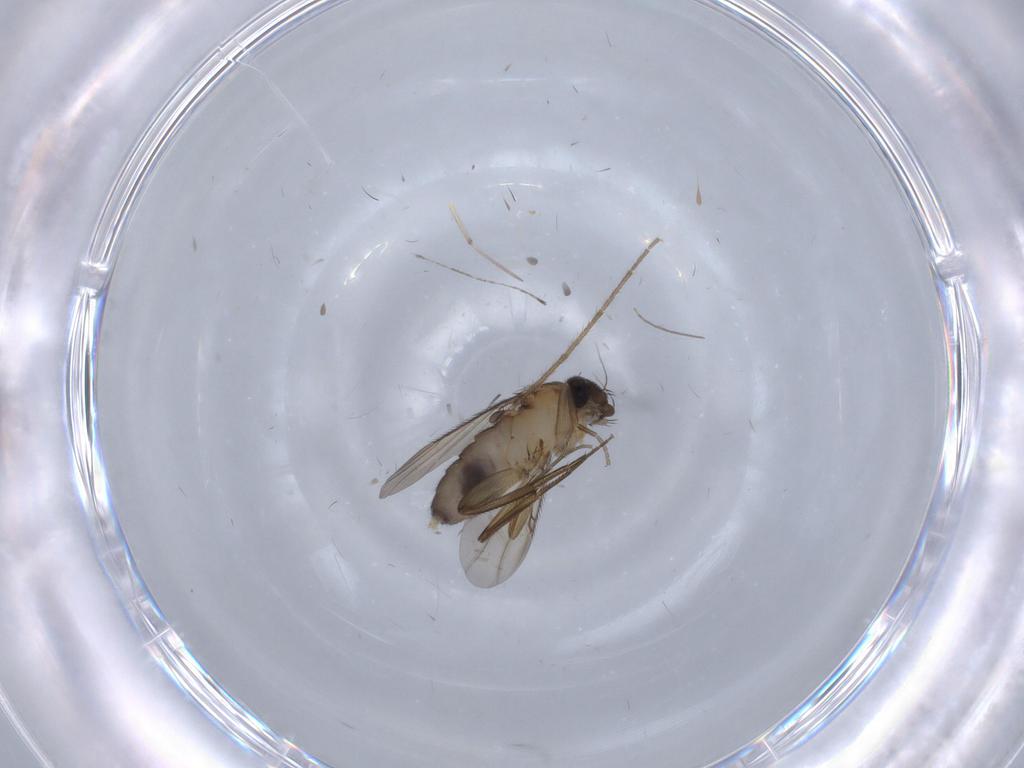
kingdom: Animalia
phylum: Arthropoda
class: Insecta
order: Diptera
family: Phoridae
